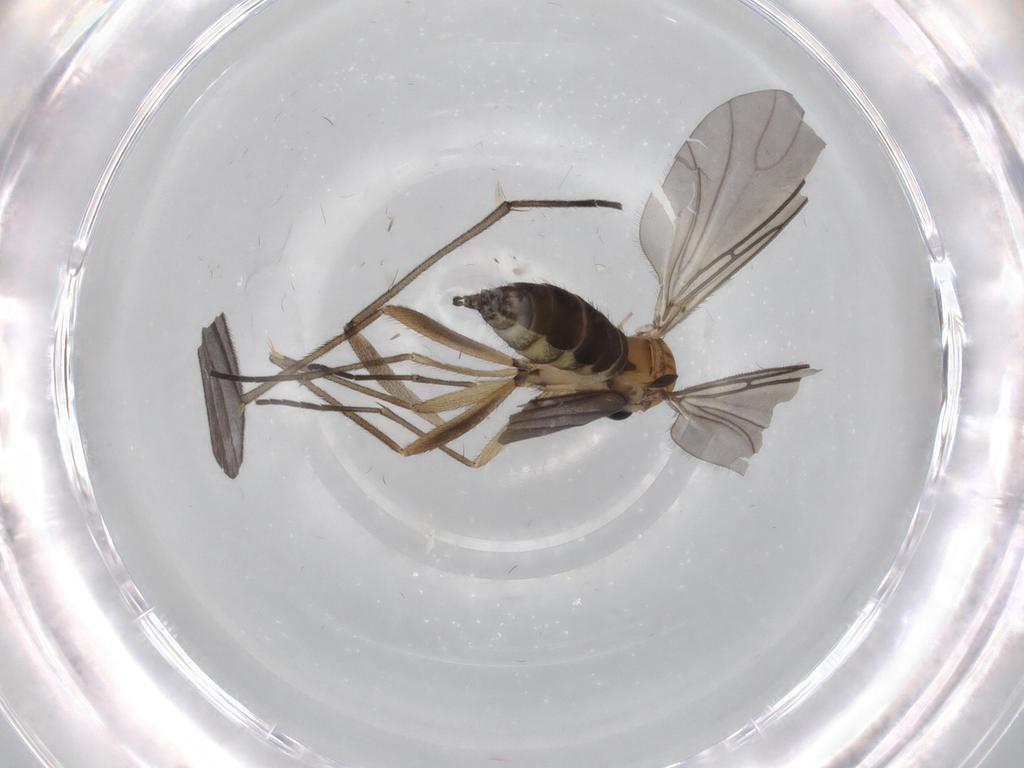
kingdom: Animalia
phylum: Arthropoda
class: Insecta
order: Diptera
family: Sciaridae
